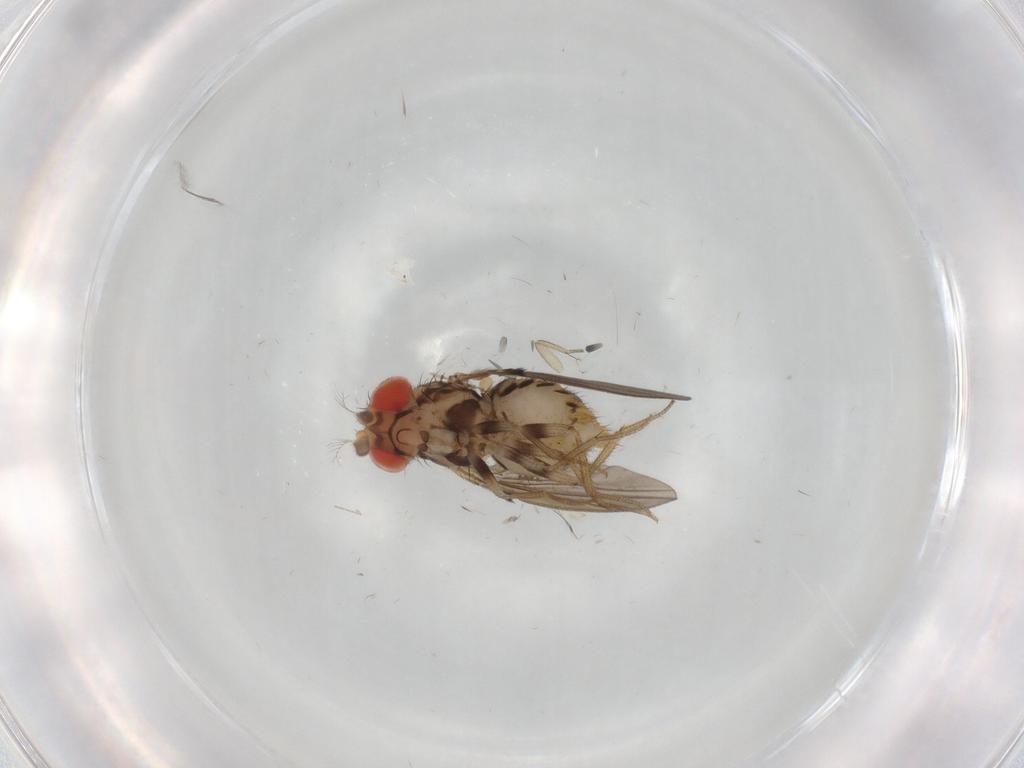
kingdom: Animalia
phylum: Arthropoda
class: Insecta
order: Diptera
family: Drosophilidae
